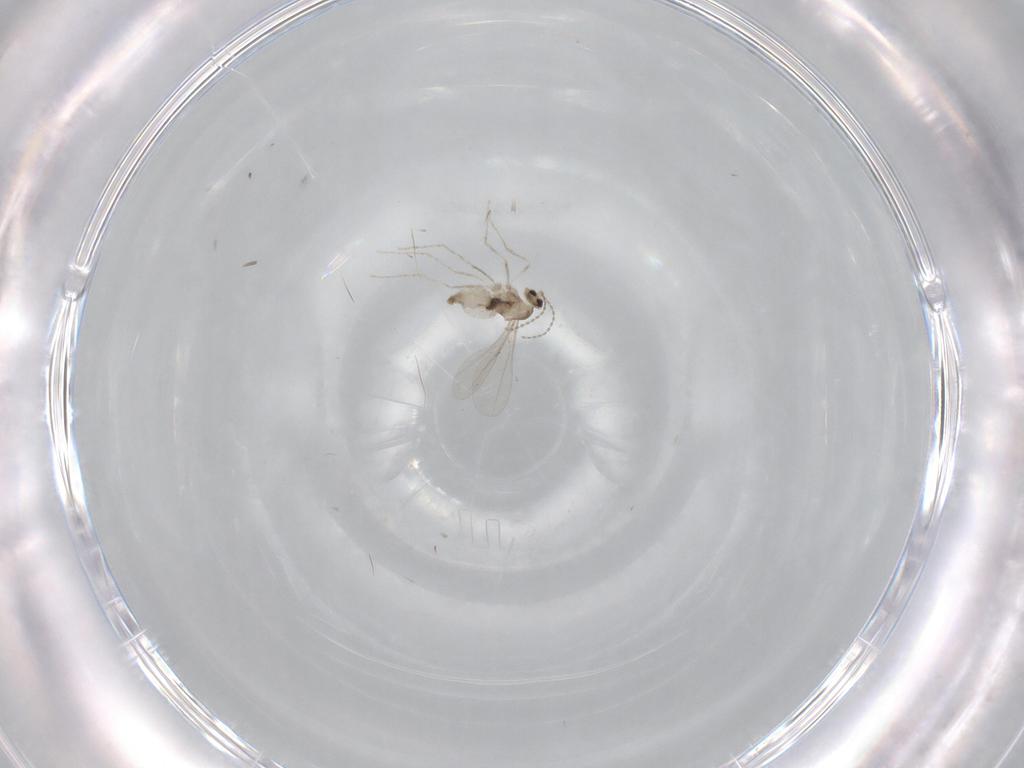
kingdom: Animalia
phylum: Arthropoda
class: Insecta
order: Diptera
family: Cecidomyiidae
